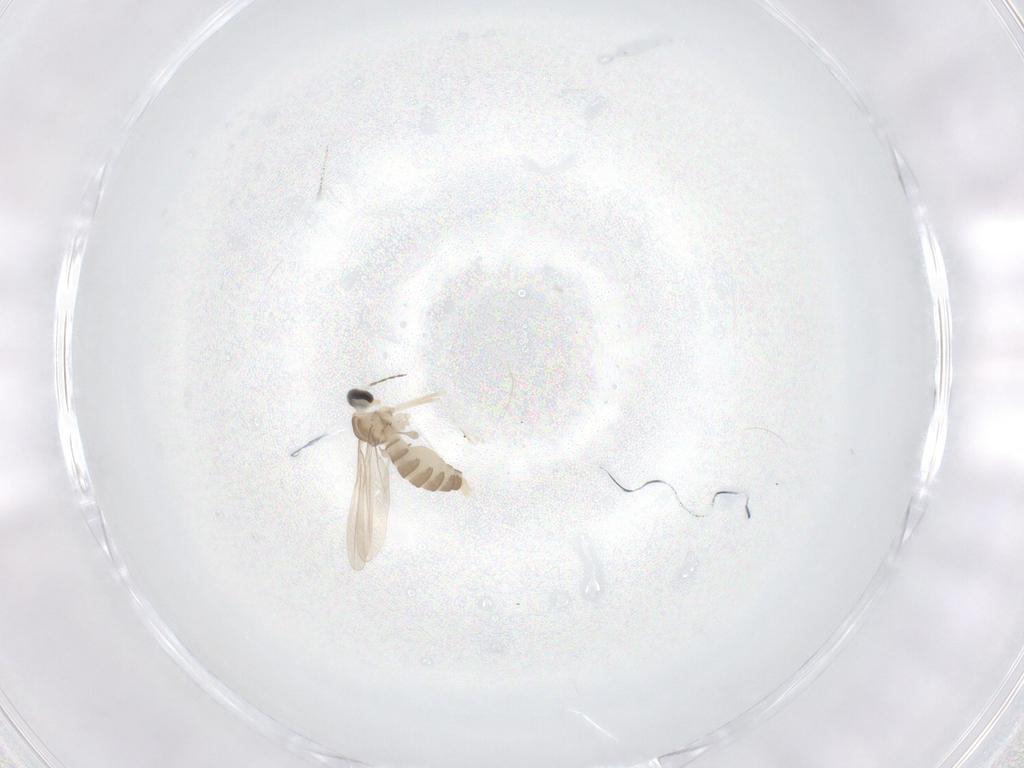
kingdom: Animalia
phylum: Arthropoda
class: Insecta
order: Diptera
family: Cecidomyiidae
